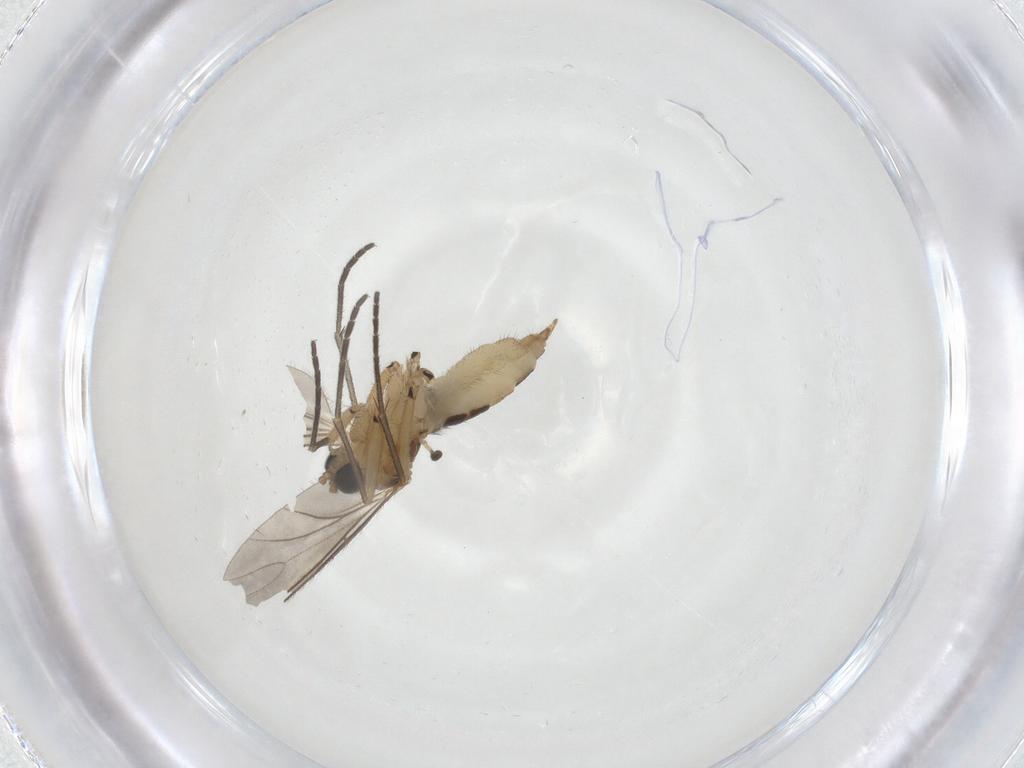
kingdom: Animalia
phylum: Arthropoda
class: Insecta
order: Diptera
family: Sciaridae
